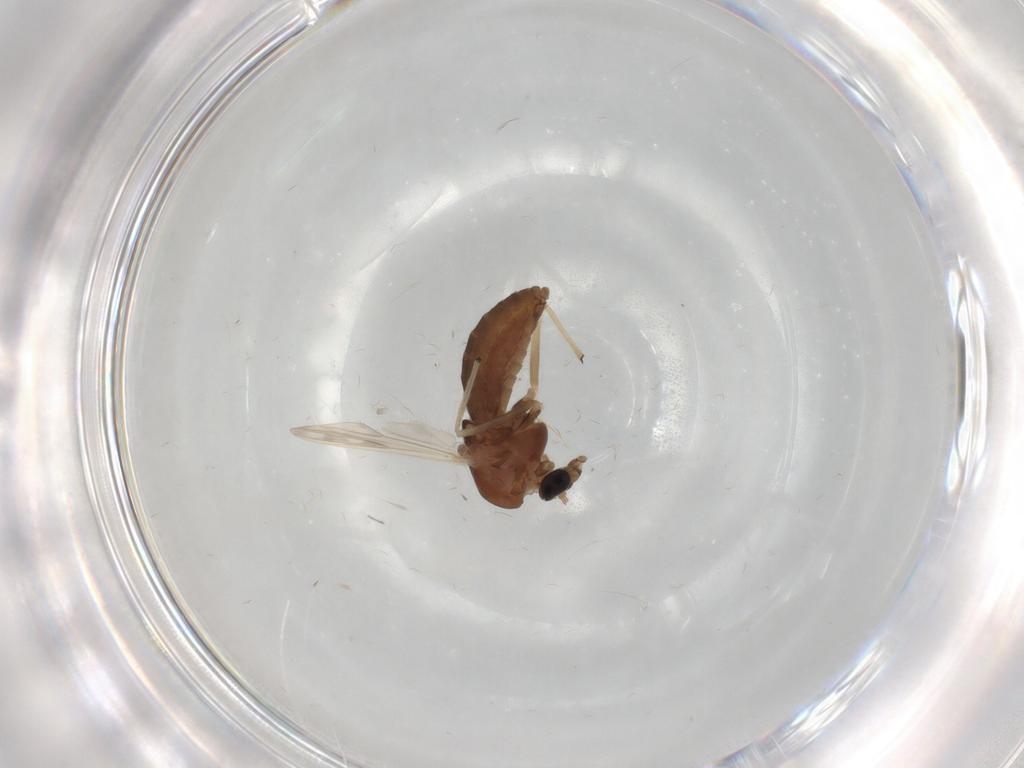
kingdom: Animalia
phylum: Arthropoda
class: Insecta
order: Diptera
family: Chironomidae
